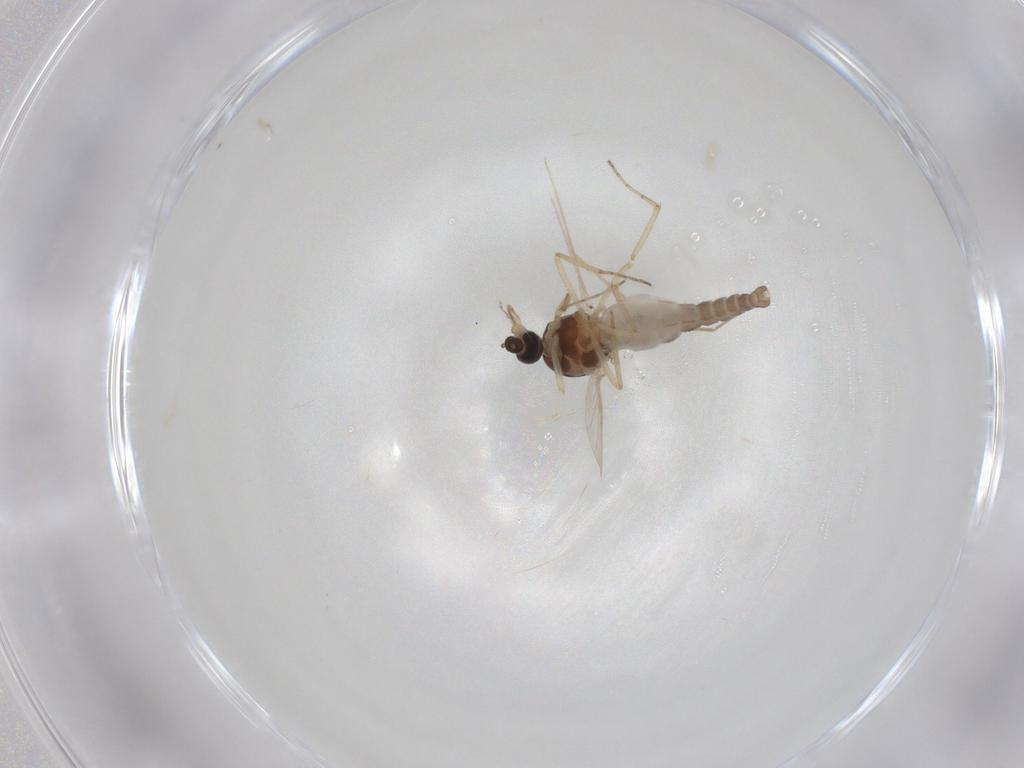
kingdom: Animalia
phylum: Arthropoda
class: Insecta
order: Diptera
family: Ceratopogonidae
